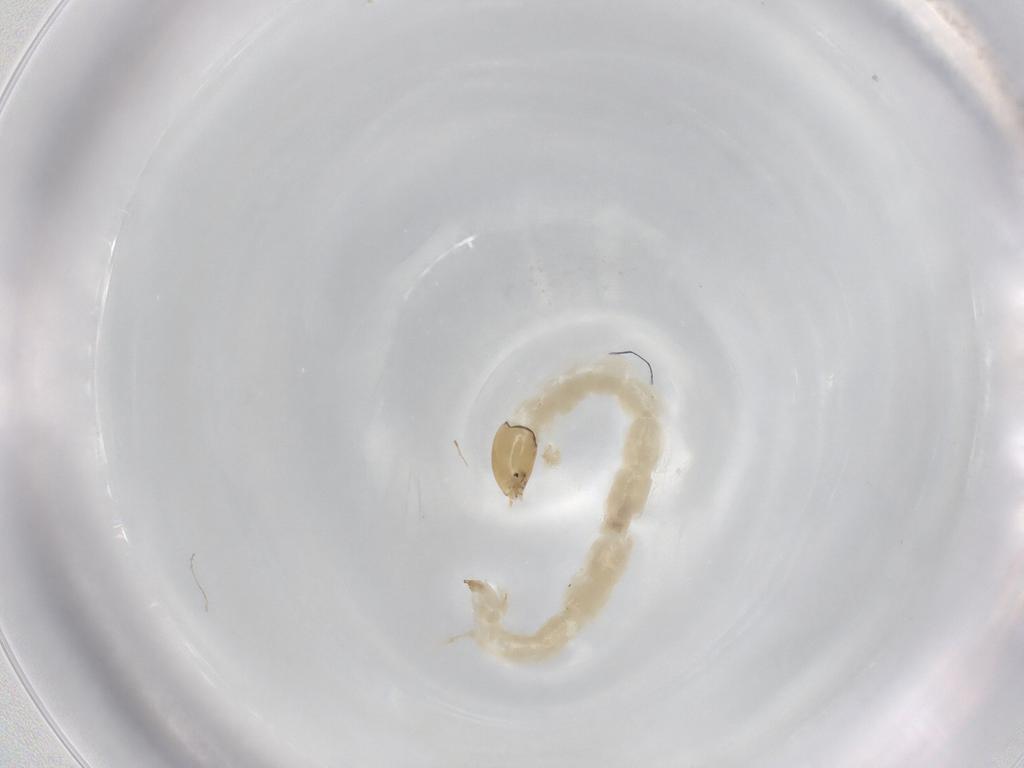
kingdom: Animalia
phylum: Arthropoda
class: Insecta
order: Diptera
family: Chironomidae
